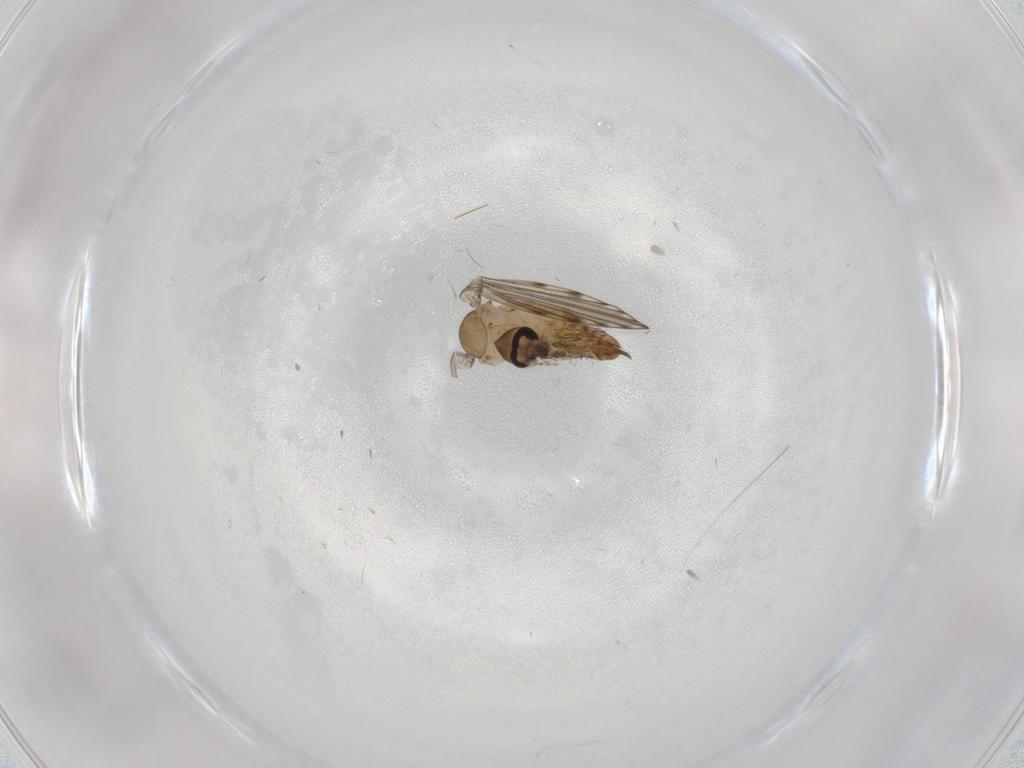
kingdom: Animalia
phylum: Arthropoda
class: Insecta
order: Diptera
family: Psychodidae
